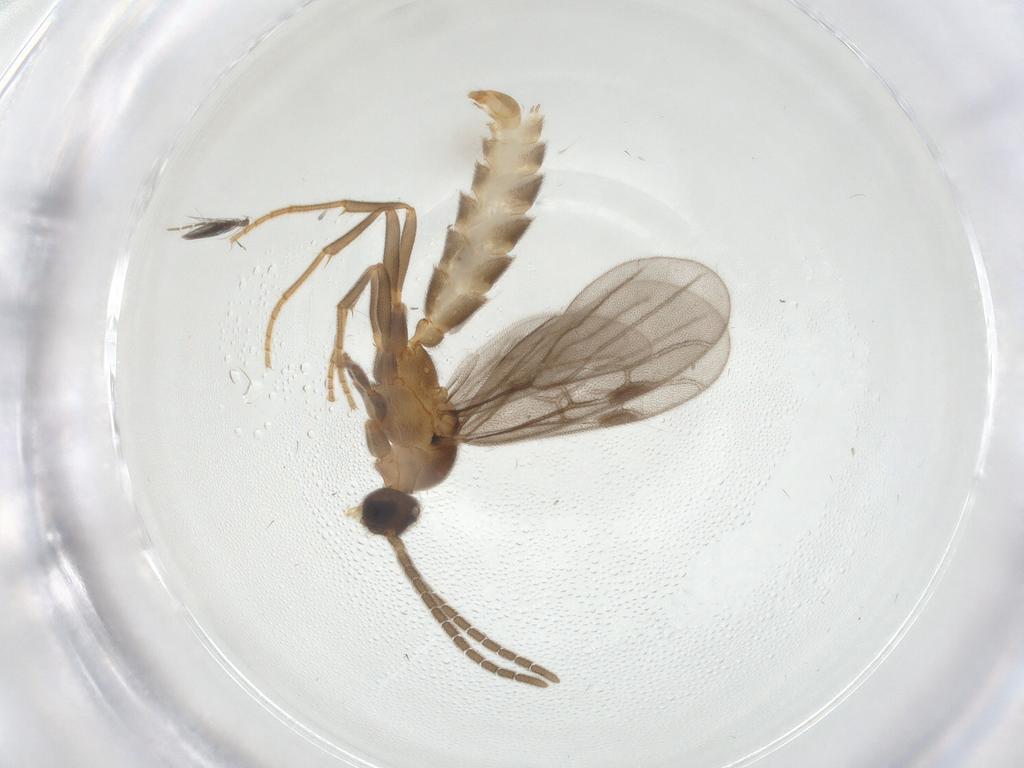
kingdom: Animalia
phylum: Arthropoda
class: Insecta
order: Hymenoptera
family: Formicidae
